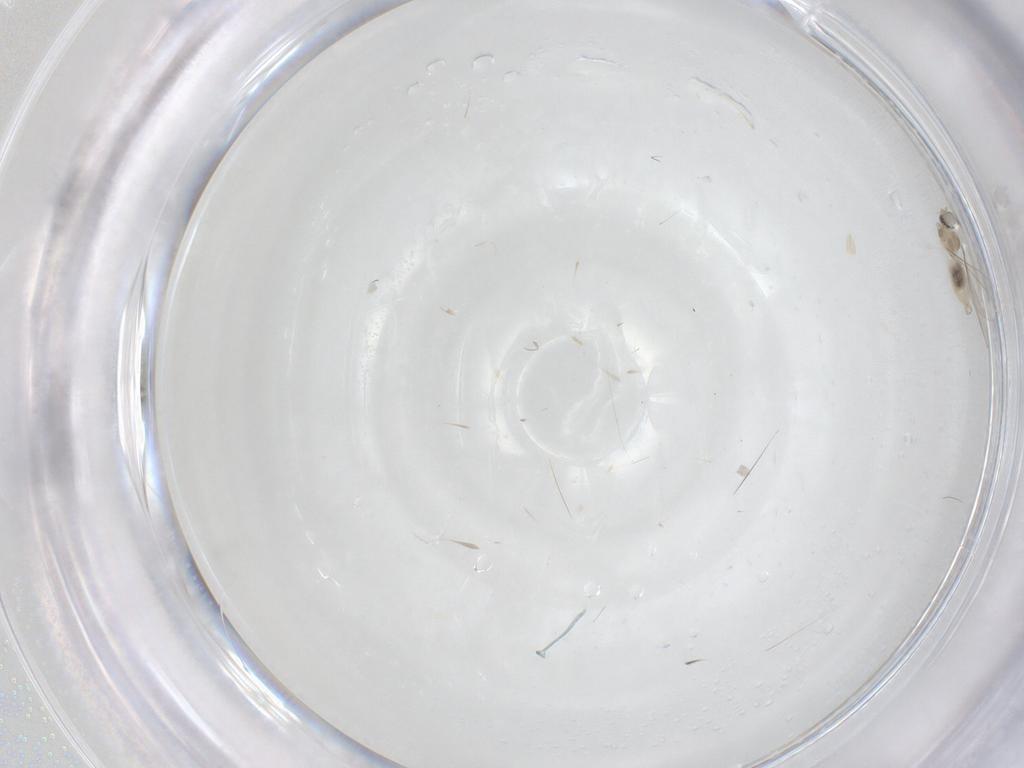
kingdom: Animalia
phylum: Arthropoda
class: Insecta
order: Diptera
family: Cecidomyiidae
